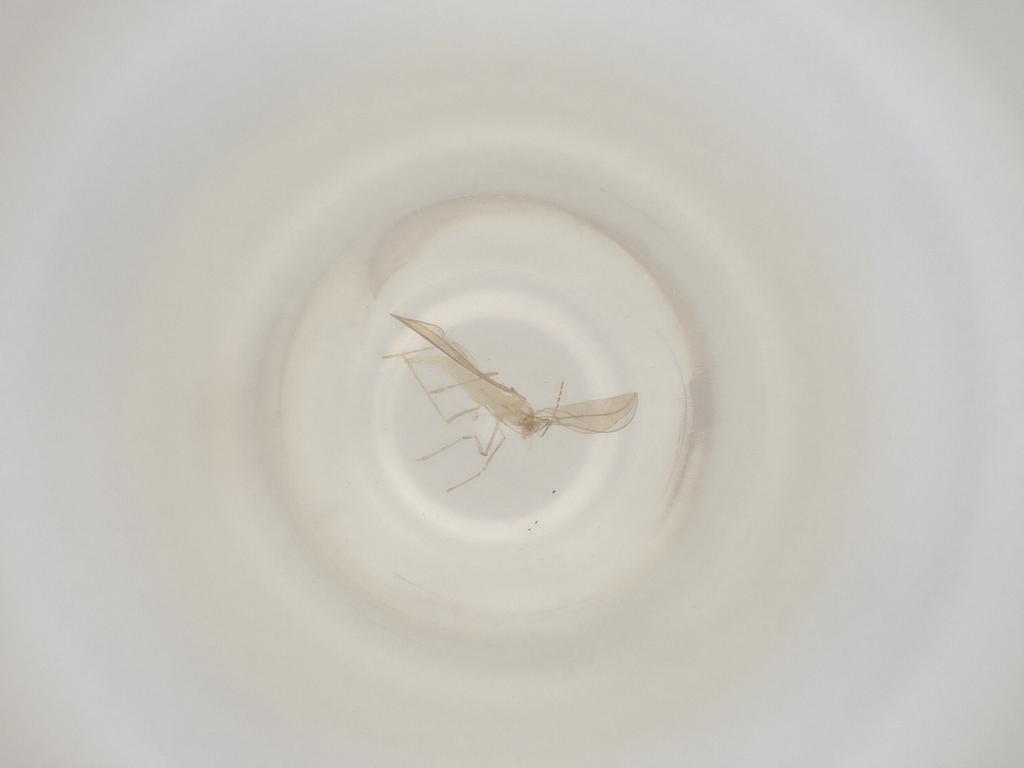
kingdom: Animalia
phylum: Arthropoda
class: Insecta
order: Diptera
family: Cecidomyiidae
